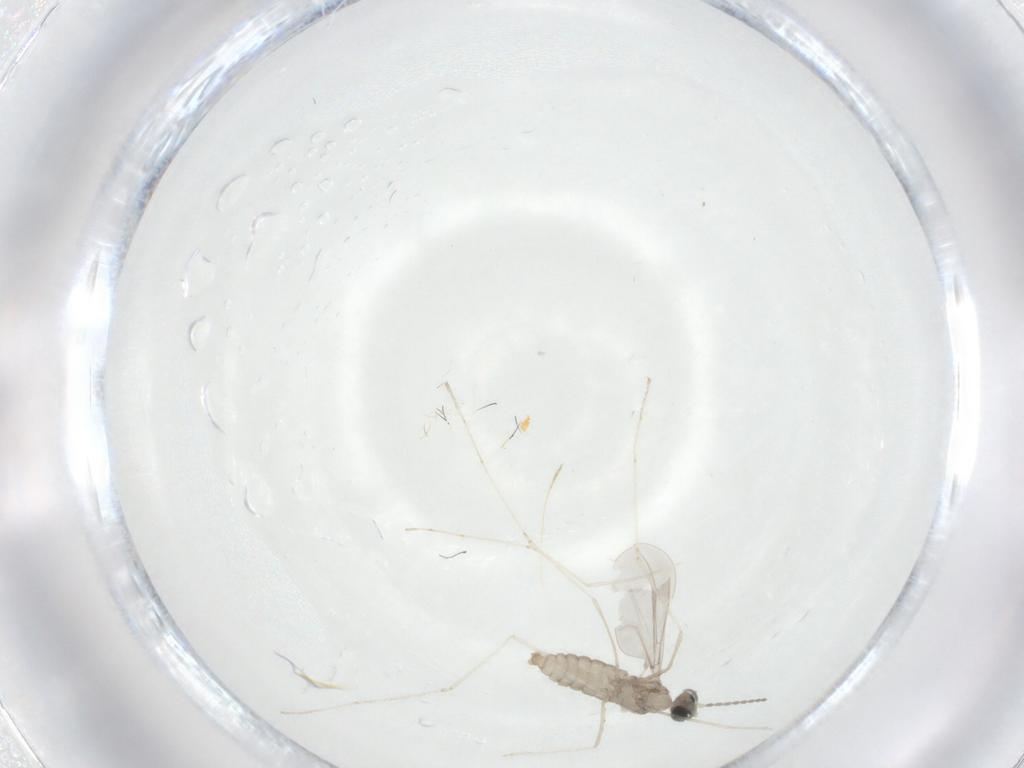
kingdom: Animalia
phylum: Arthropoda
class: Insecta
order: Diptera
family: Cecidomyiidae
